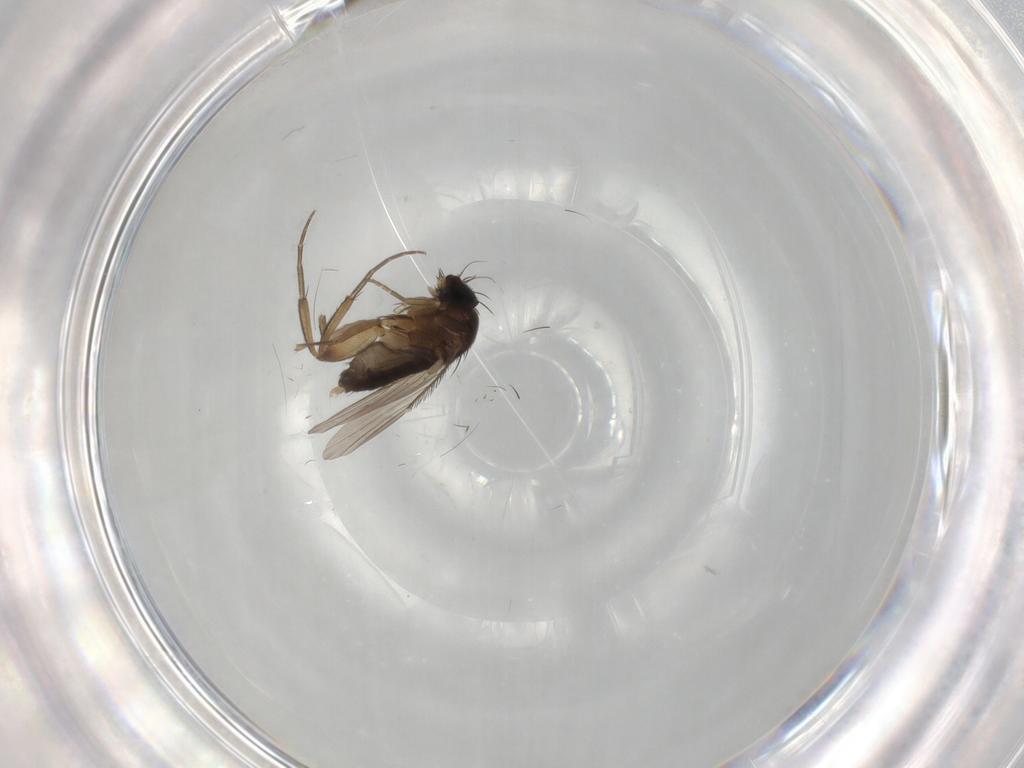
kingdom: Animalia
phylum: Arthropoda
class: Insecta
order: Diptera
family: Phoridae
